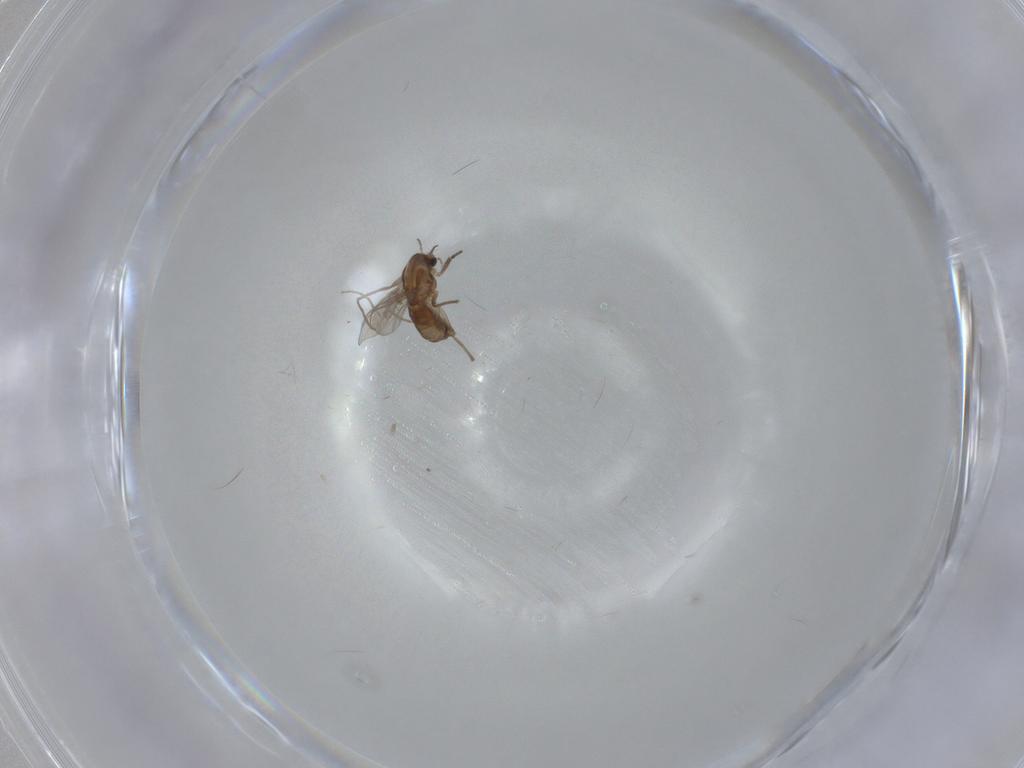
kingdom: Animalia
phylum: Arthropoda
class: Insecta
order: Diptera
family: Chironomidae
